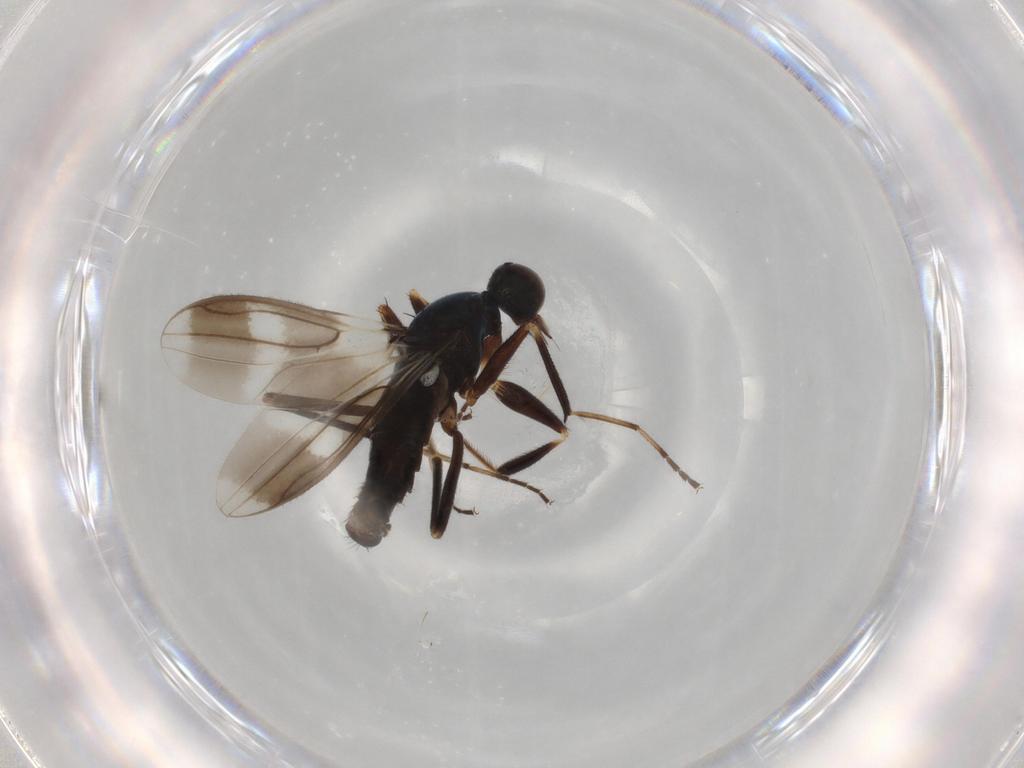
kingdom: Animalia
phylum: Arthropoda
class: Insecta
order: Diptera
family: Hybotidae
